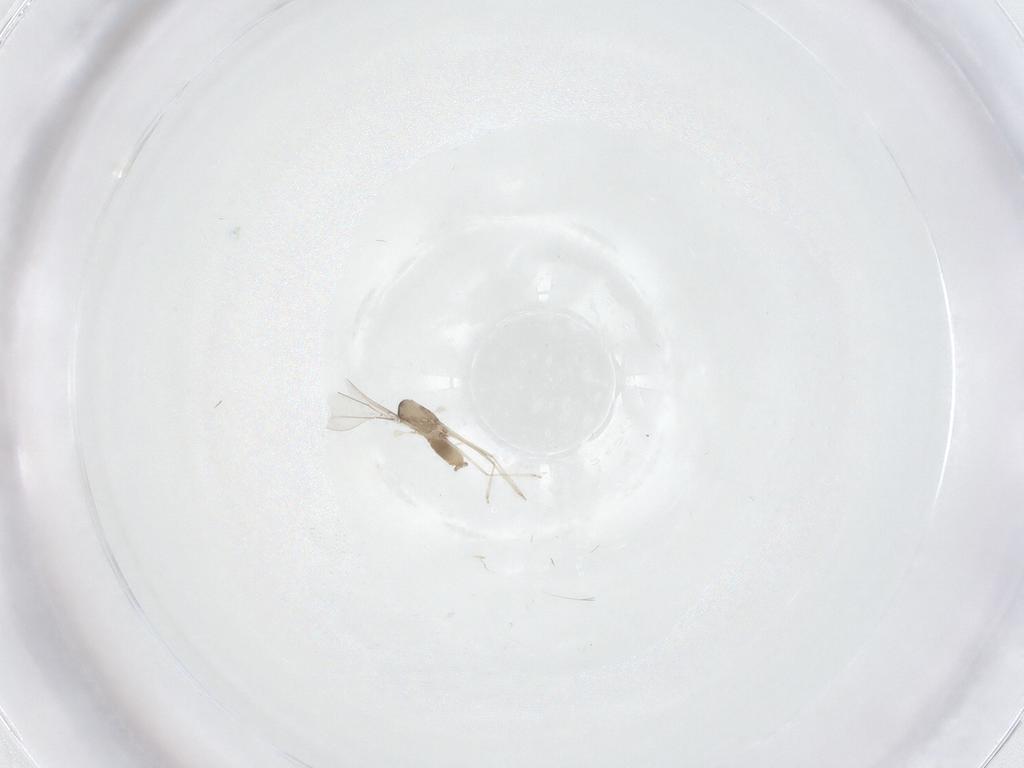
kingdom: Animalia
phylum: Arthropoda
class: Insecta
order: Diptera
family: Cecidomyiidae
